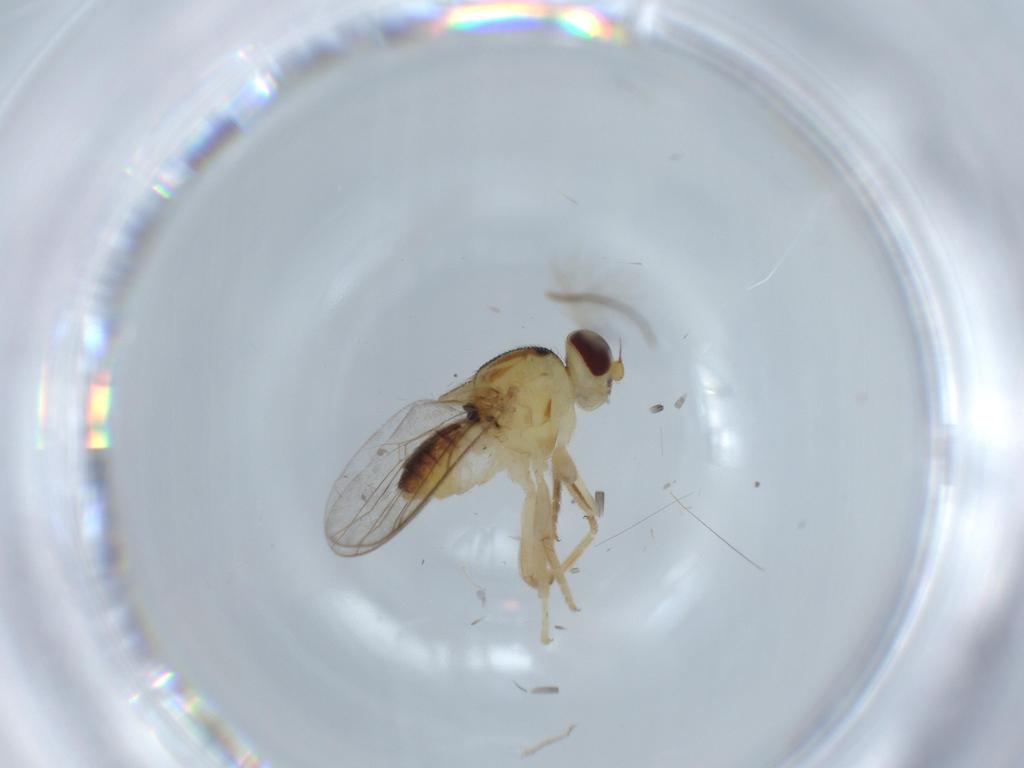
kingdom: Animalia
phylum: Arthropoda
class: Insecta
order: Diptera
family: Chloropidae
